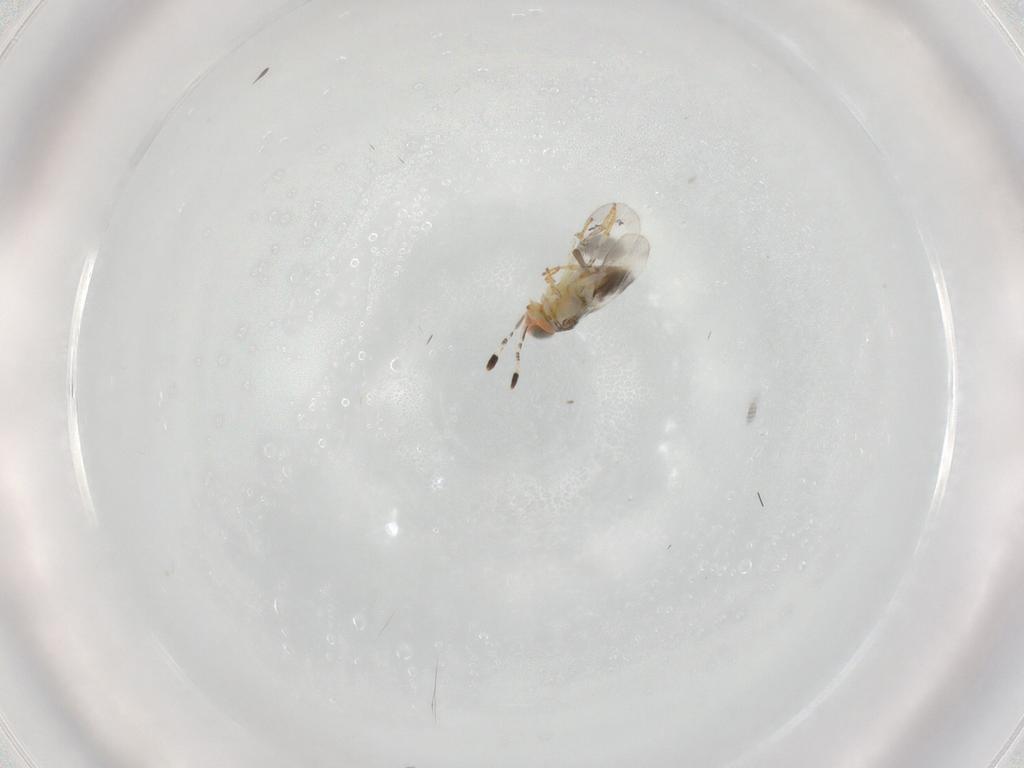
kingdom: Animalia
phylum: Arthropoda
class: Insecta
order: Hymenoptera
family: Encyrtidae
